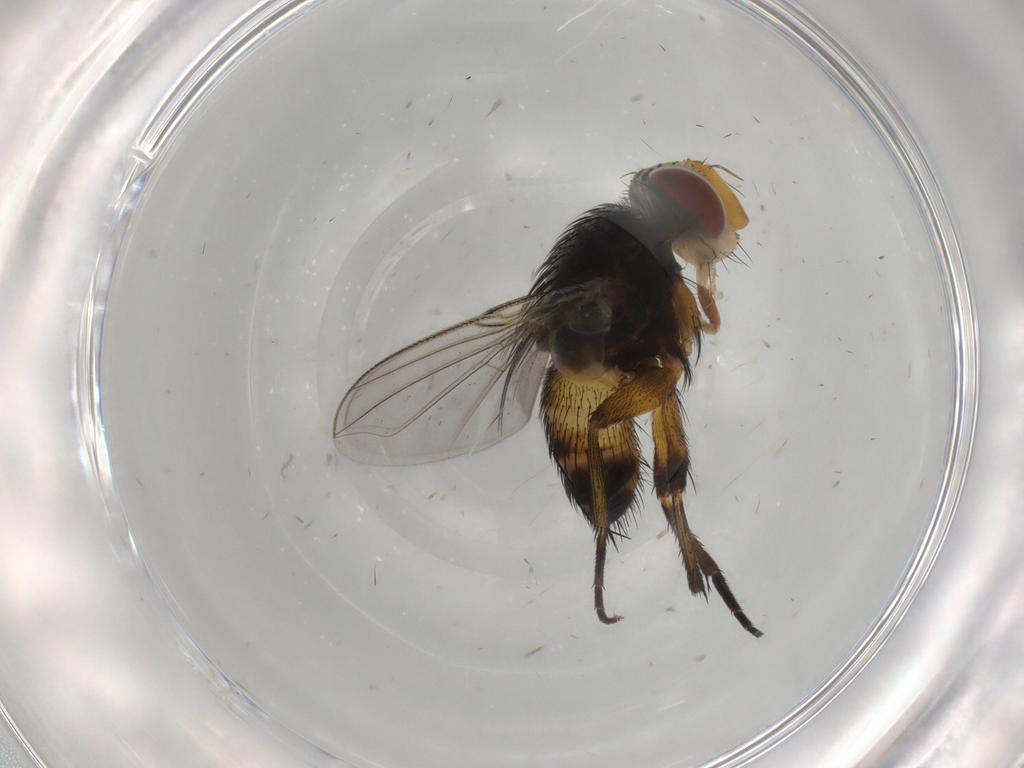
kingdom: Animalia
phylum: Arthropoda
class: Insecta
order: Diptera
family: Tachinidae
